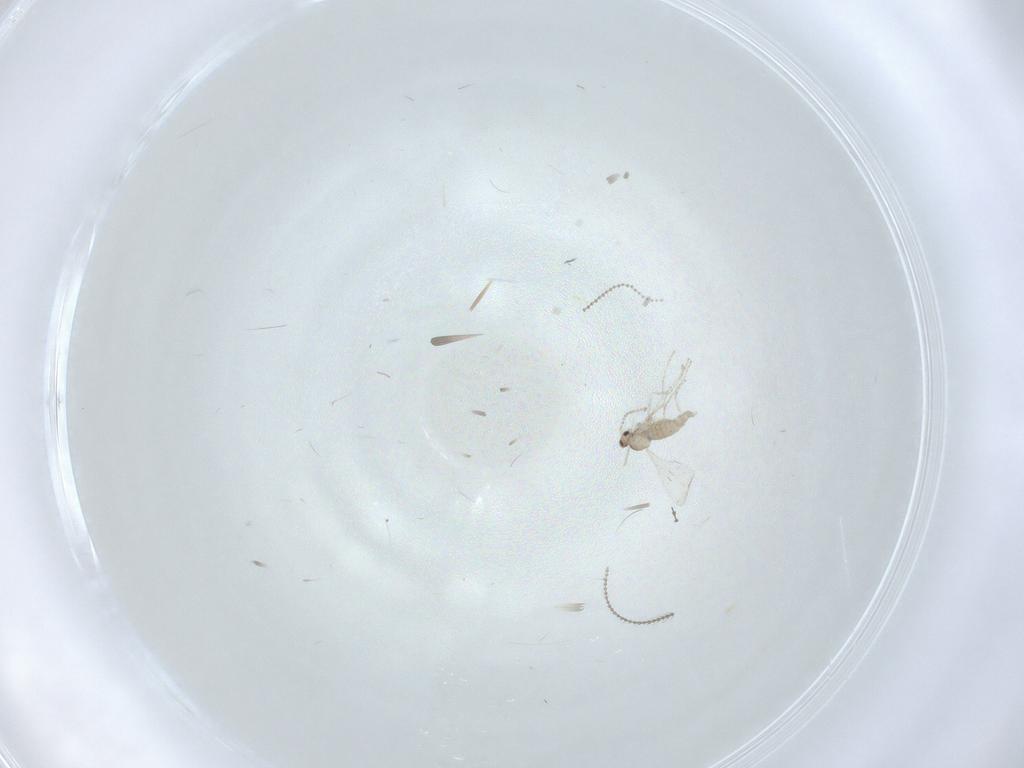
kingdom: Animalia
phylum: Arthropoda
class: Insecta
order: Diptera
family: Cecidomyiidae
